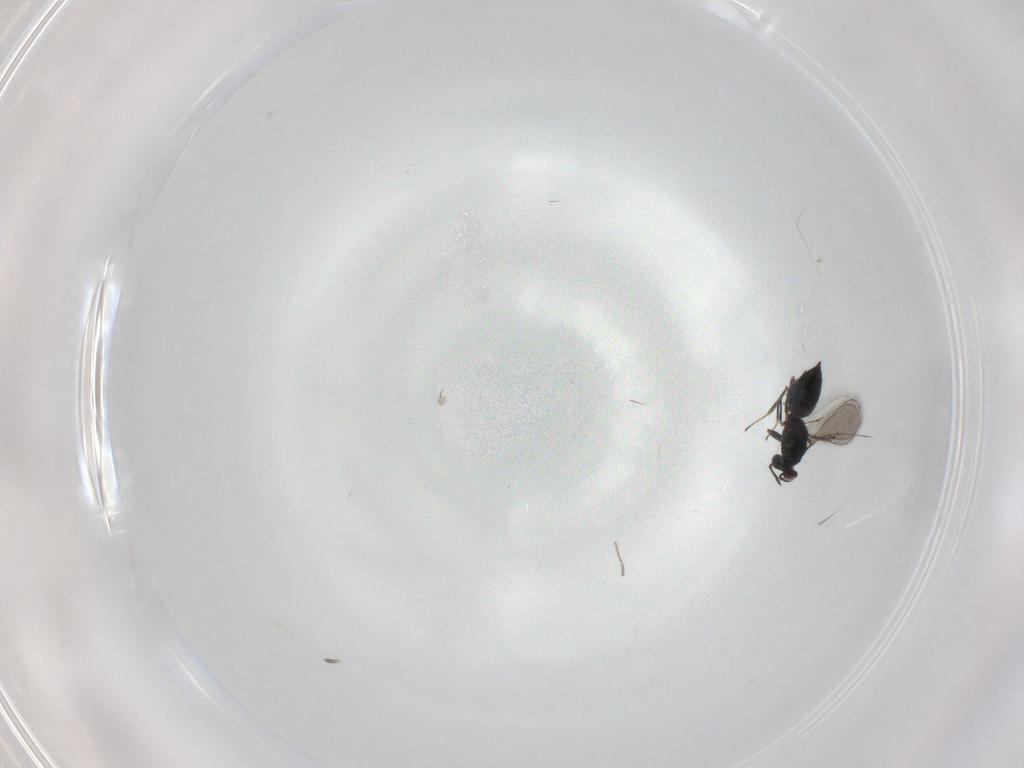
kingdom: Animalia
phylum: Arthropoda
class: Insecta
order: Hymenoptera
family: Eulophidae
